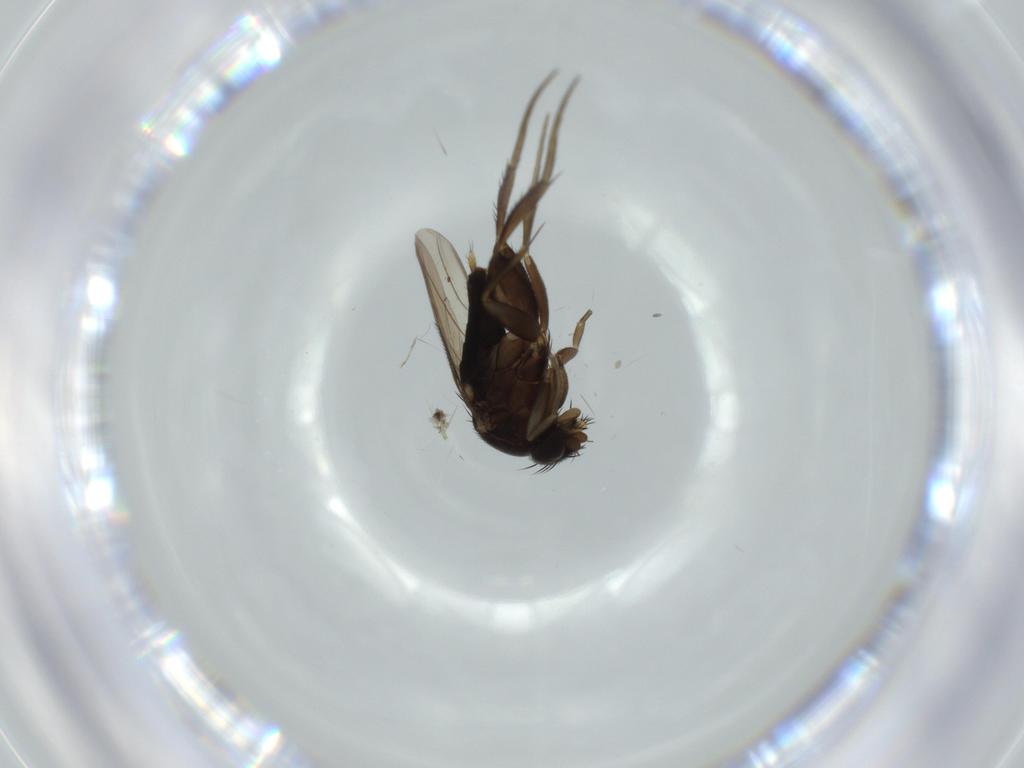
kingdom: Animalia
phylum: Arthropoda
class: Insecta
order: Diptera
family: Phoridae
